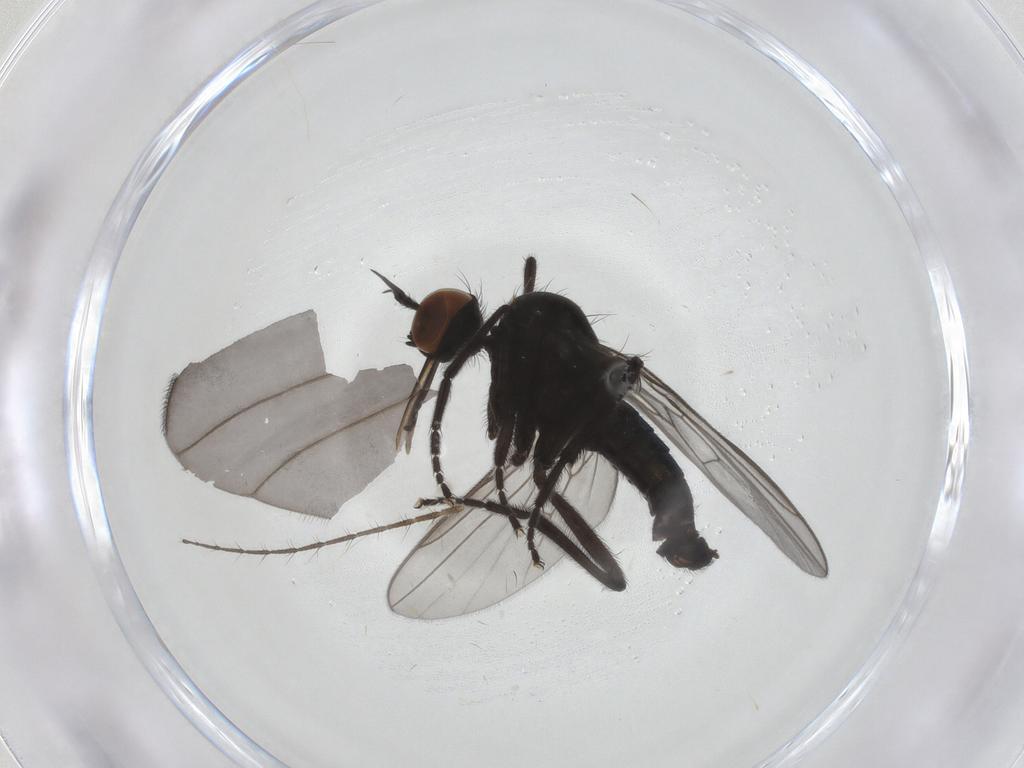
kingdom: Animalia
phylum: Arthropoda
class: Insecta
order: Diptera
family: Empididae
